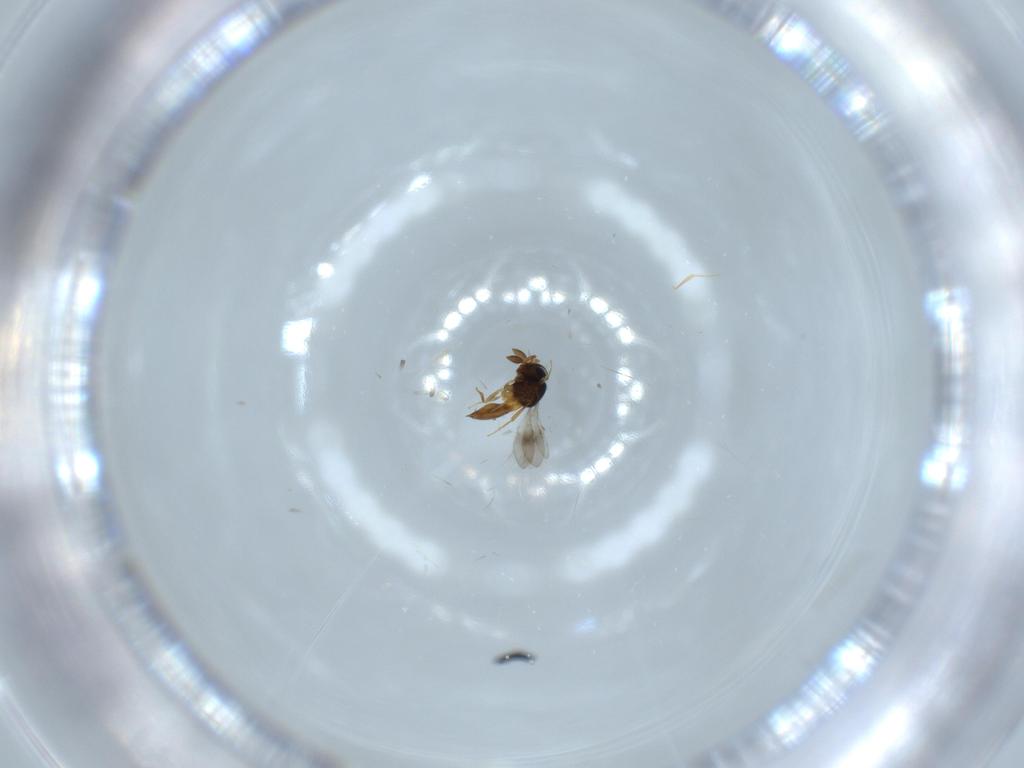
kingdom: Animalia
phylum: Arthropoda
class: Insecta
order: Hymenoptera
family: Scelionidae
